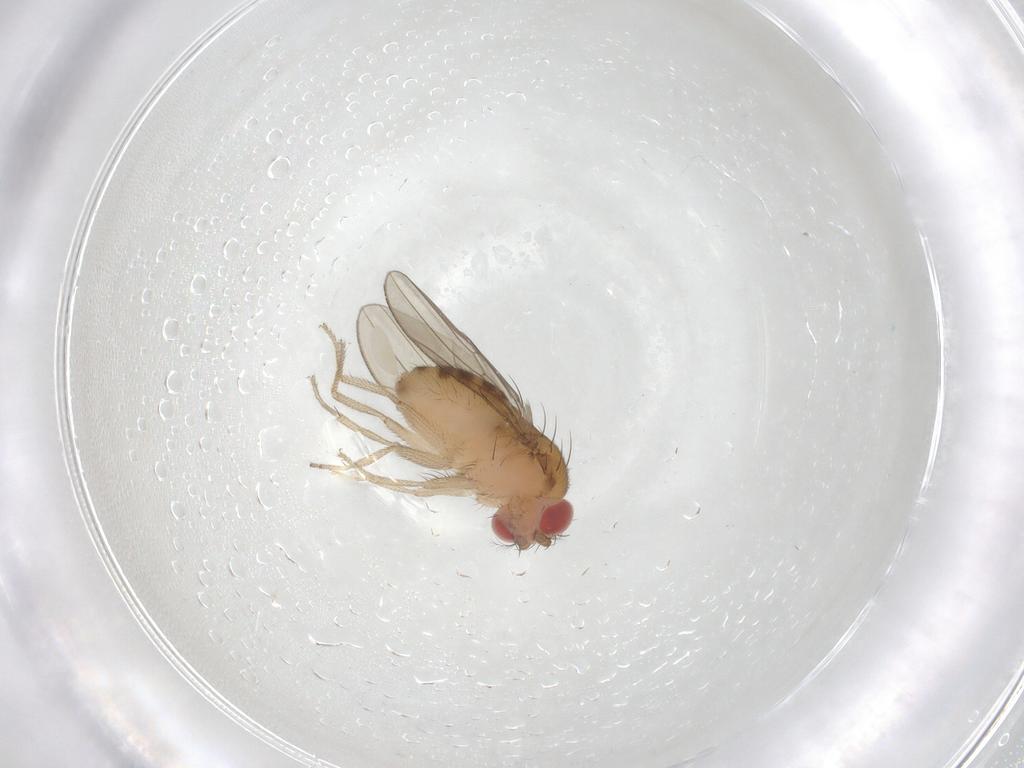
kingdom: Animalia
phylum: Arthropoda
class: Insecta
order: Diptera
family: Drosophilidae
